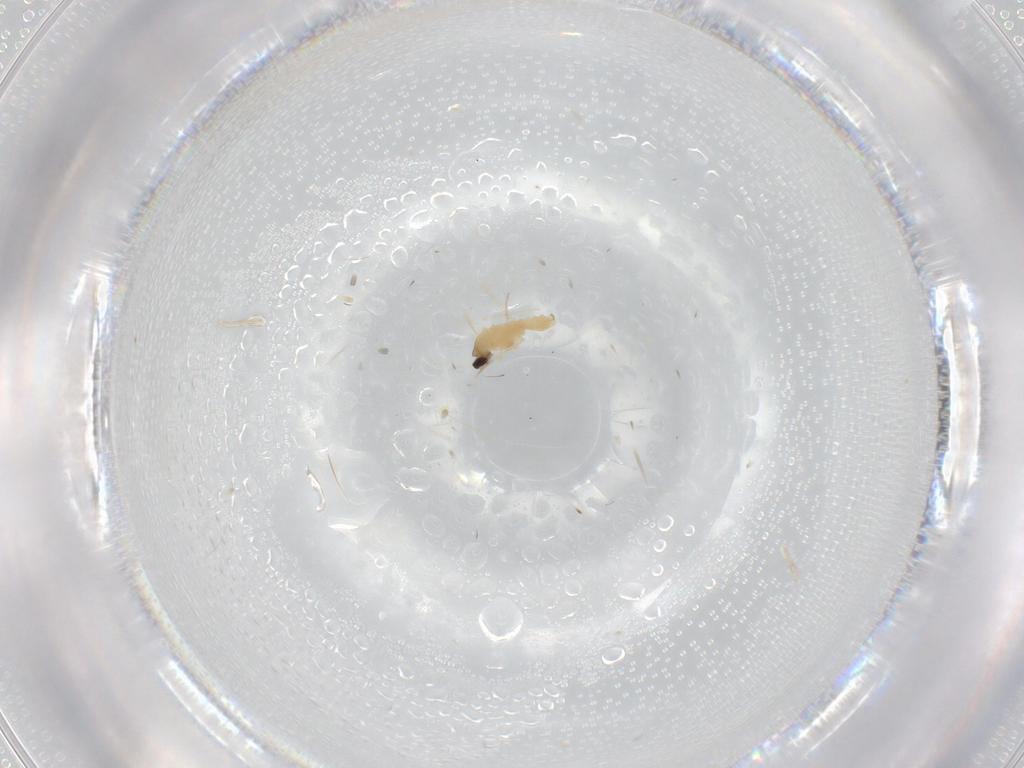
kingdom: Animalia
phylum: Arthropoda
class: Insecta
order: Diptera
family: Cecidomyiidae
